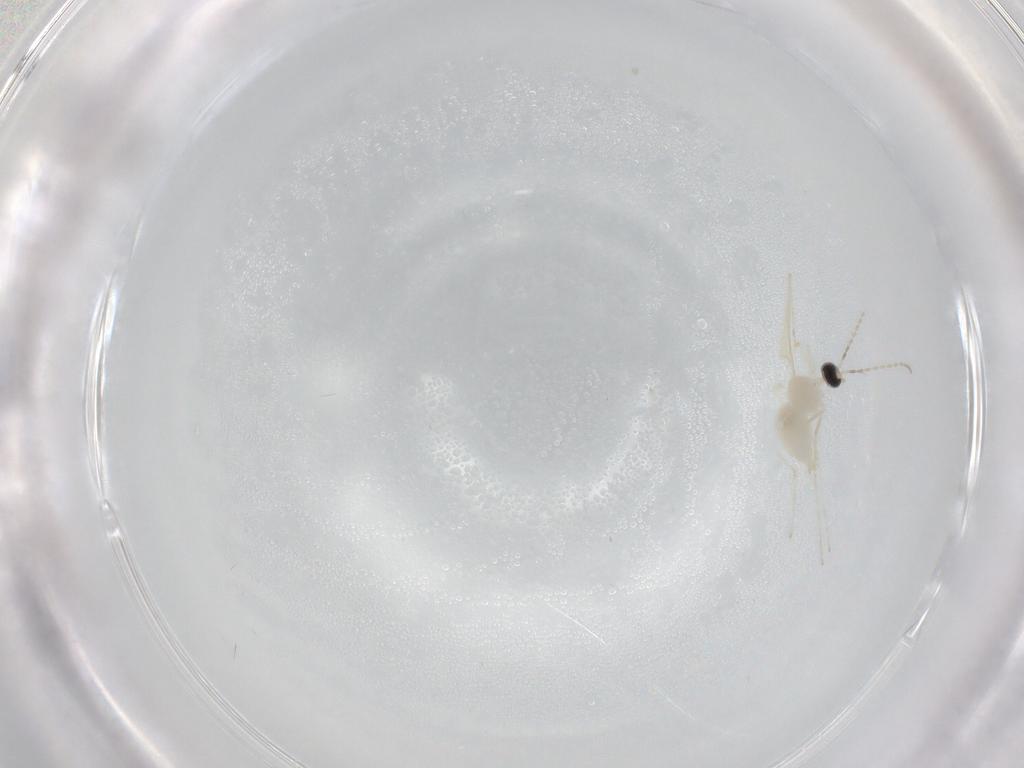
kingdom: Animalia
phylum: Arthropoda
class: Insecta
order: Diptera
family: Cecidomyiidae
